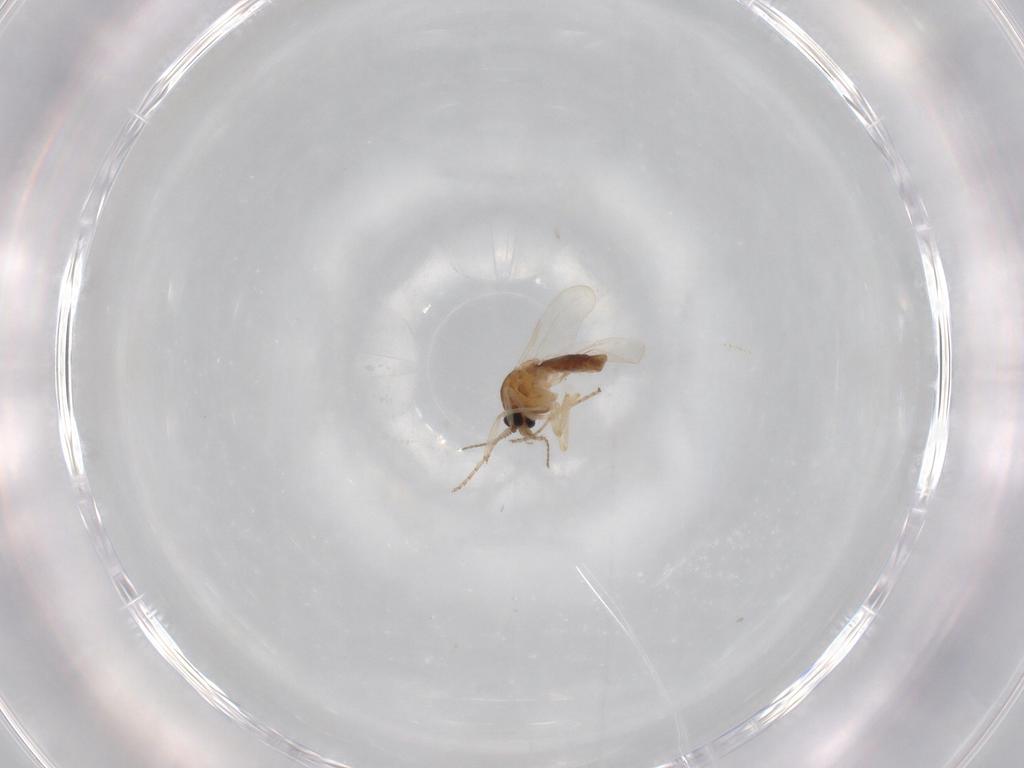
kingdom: Animalia
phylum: Arthropoda
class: Insecta
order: Diptera
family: Ceratopogonidae
